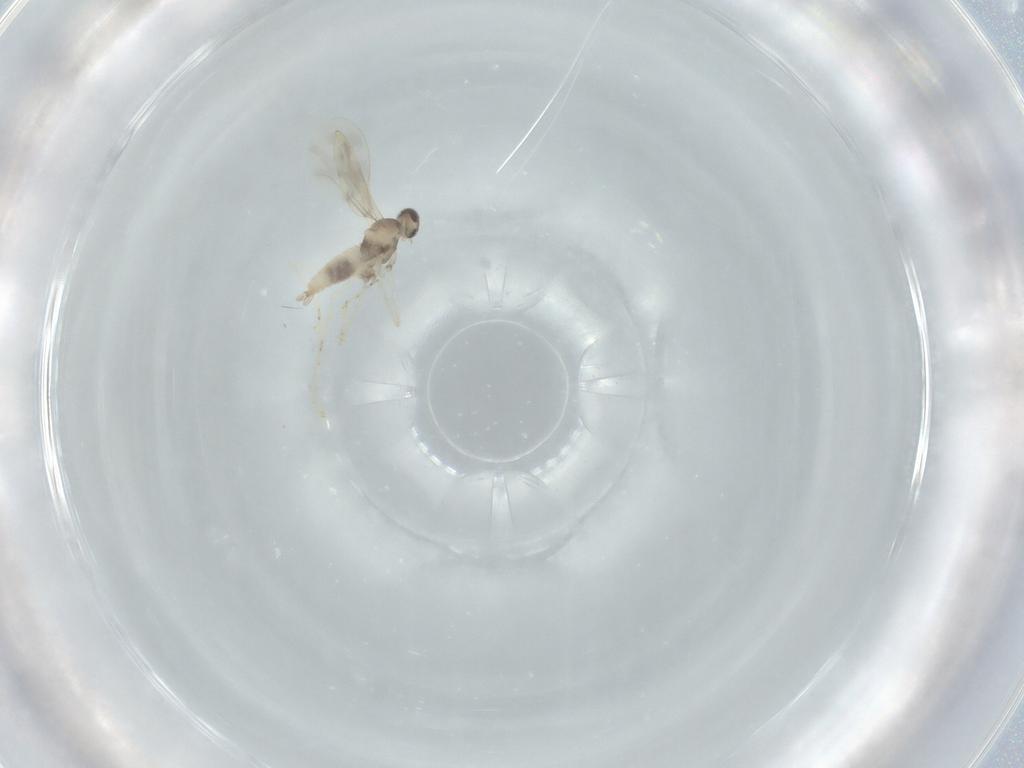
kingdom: Animalia
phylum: Arthropoda
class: Insecta
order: Diptera
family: Cecidomyiidae
